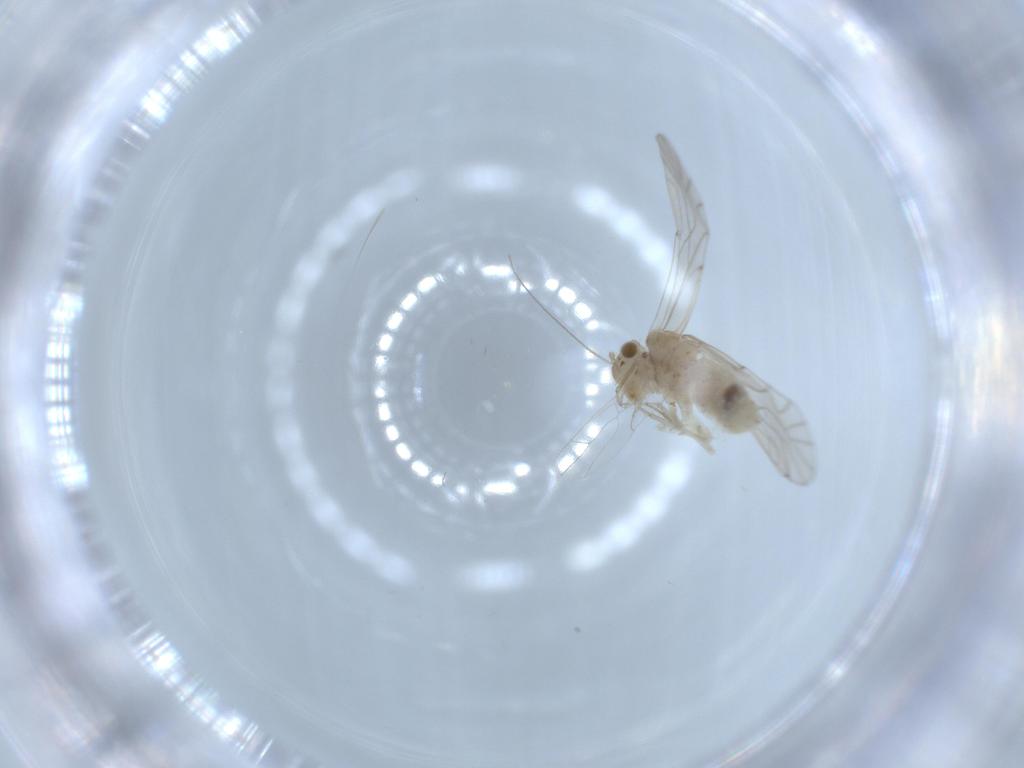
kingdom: Animalia
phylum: Arthropoda
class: Insecta
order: Psocodea
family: Lachesillidae
